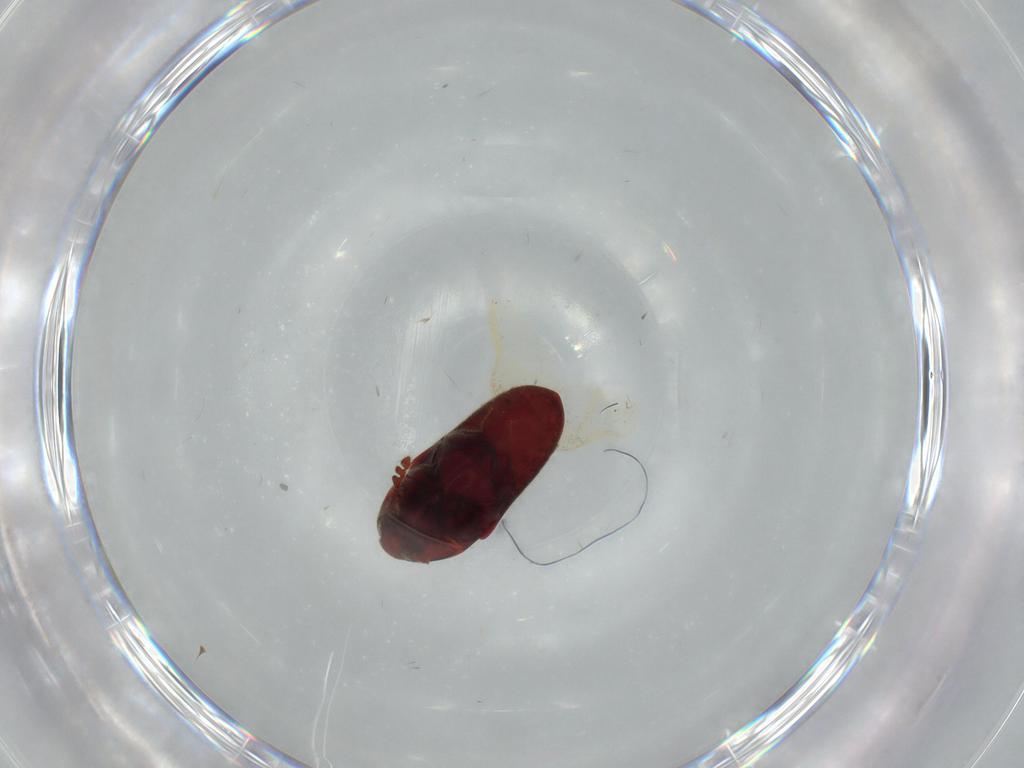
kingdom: Animalia
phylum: Arthropoda
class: Insecta
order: Coleoptera
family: Throscidae
